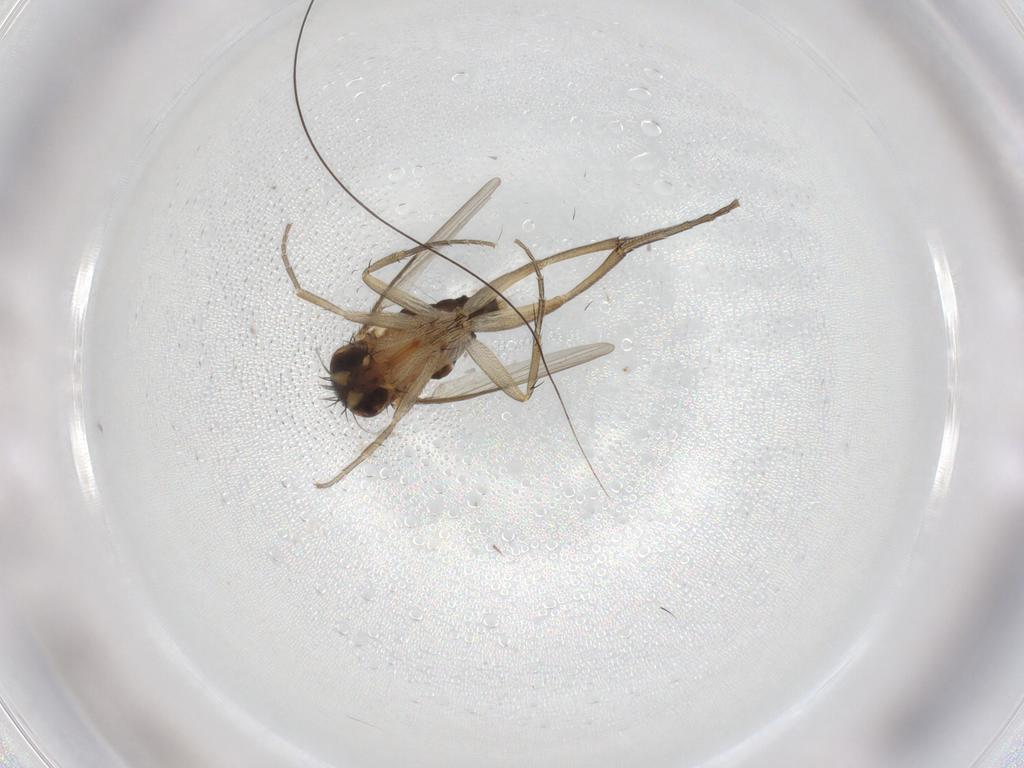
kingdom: Animalia
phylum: Arthropoda
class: Insecta
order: Diptera
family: Phoridae
